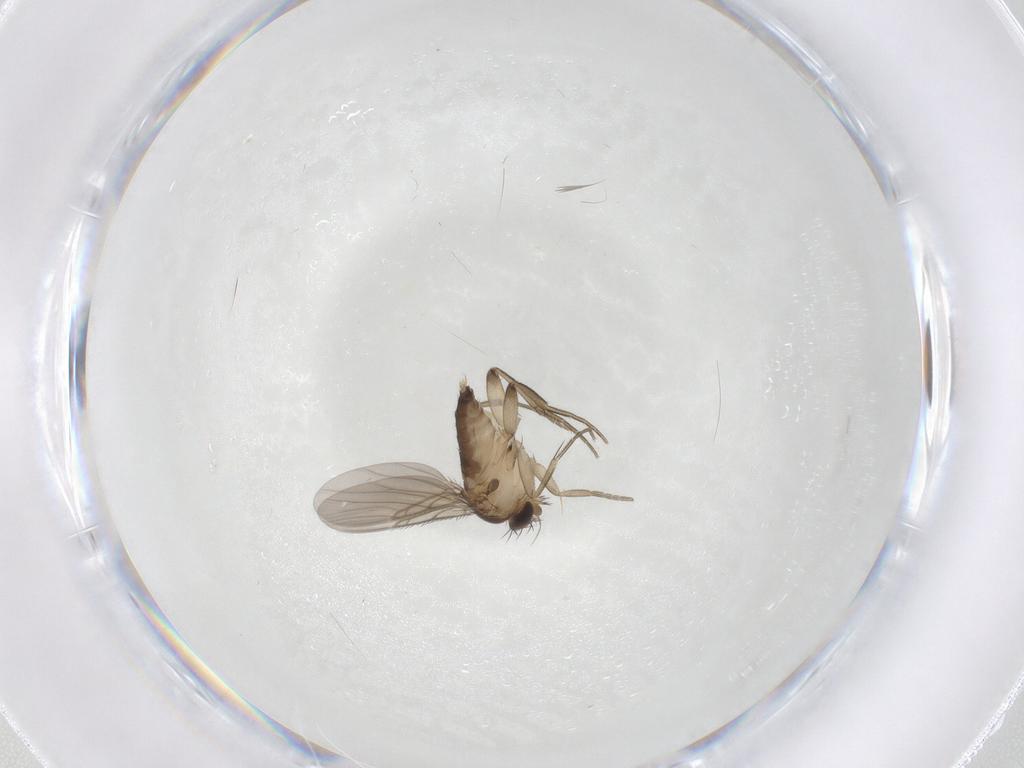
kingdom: Animalia
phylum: Arthropoda
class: Insecta
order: Diptera
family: Phoridae
